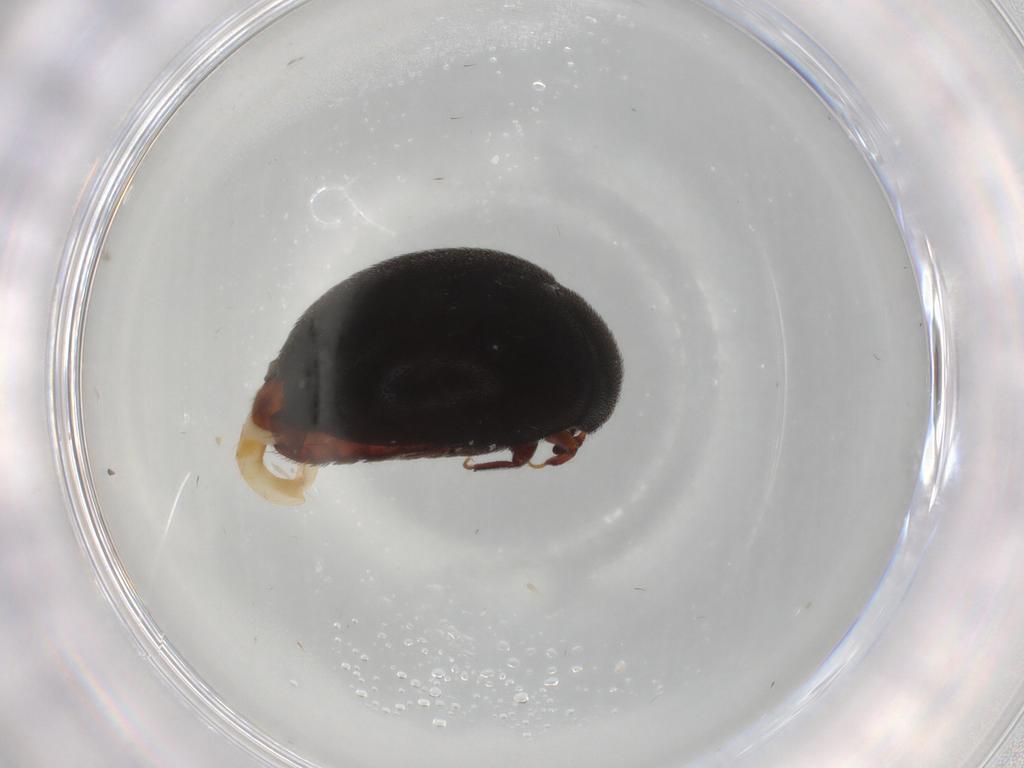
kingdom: Animalia
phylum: Arthropoda
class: Insecta
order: Coleoptera
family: Dermestidae
